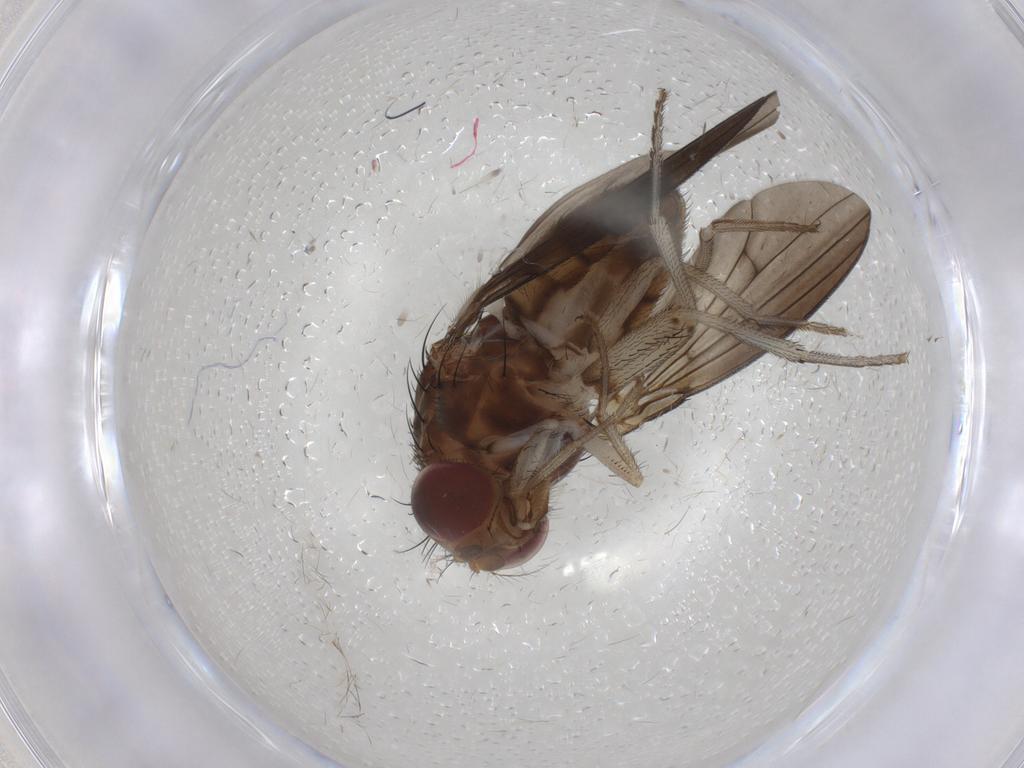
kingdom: Animalia
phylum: Arthropoda
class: Insecta
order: Diptera
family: Curtonotidae
